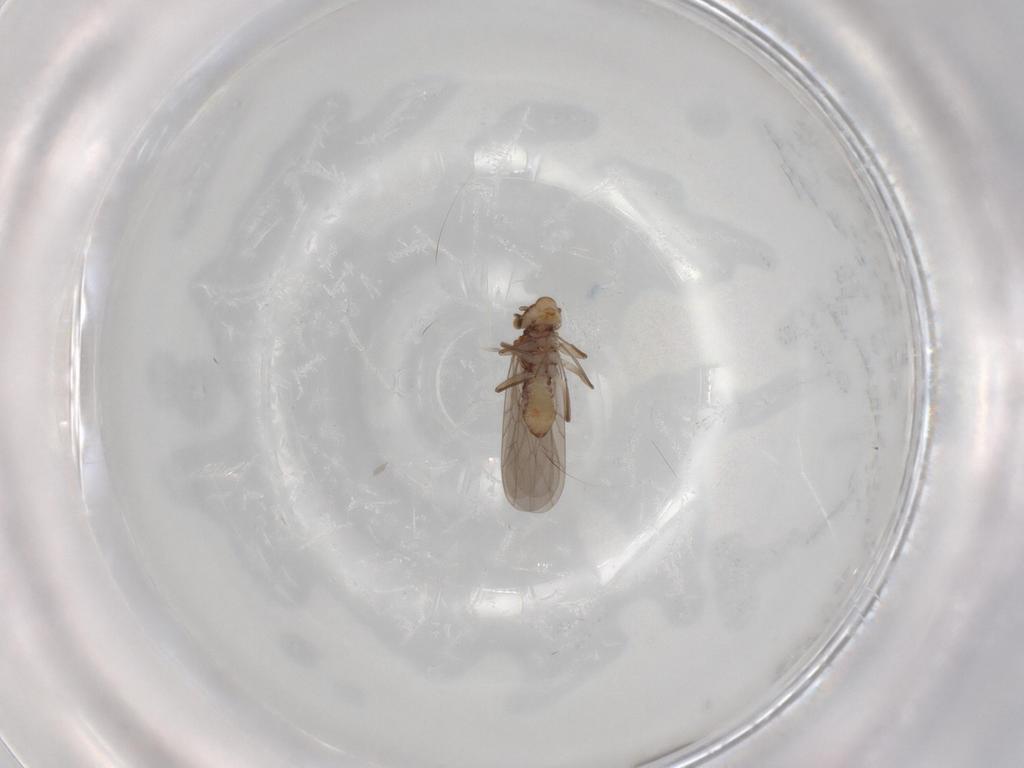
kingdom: Animalia
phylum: Arthropoda
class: Insecta
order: Psocodea
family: Lepidopsocidae
